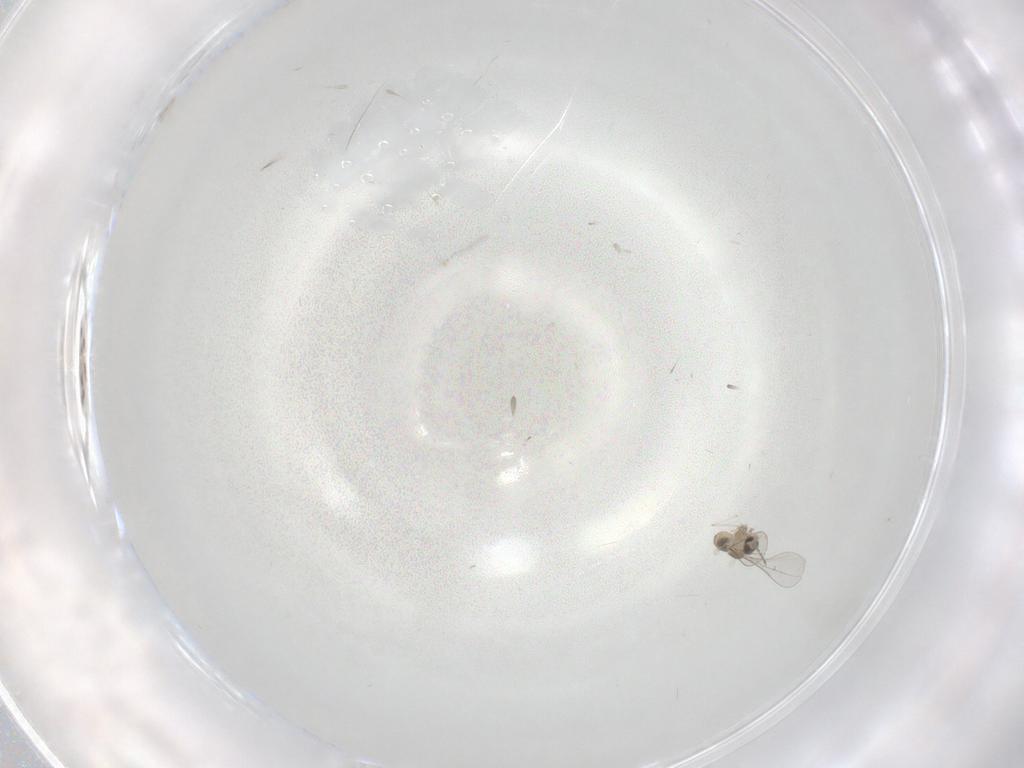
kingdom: Animalia
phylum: Arthropoda
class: Insecta
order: Diptera
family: Cecidomyiidae
